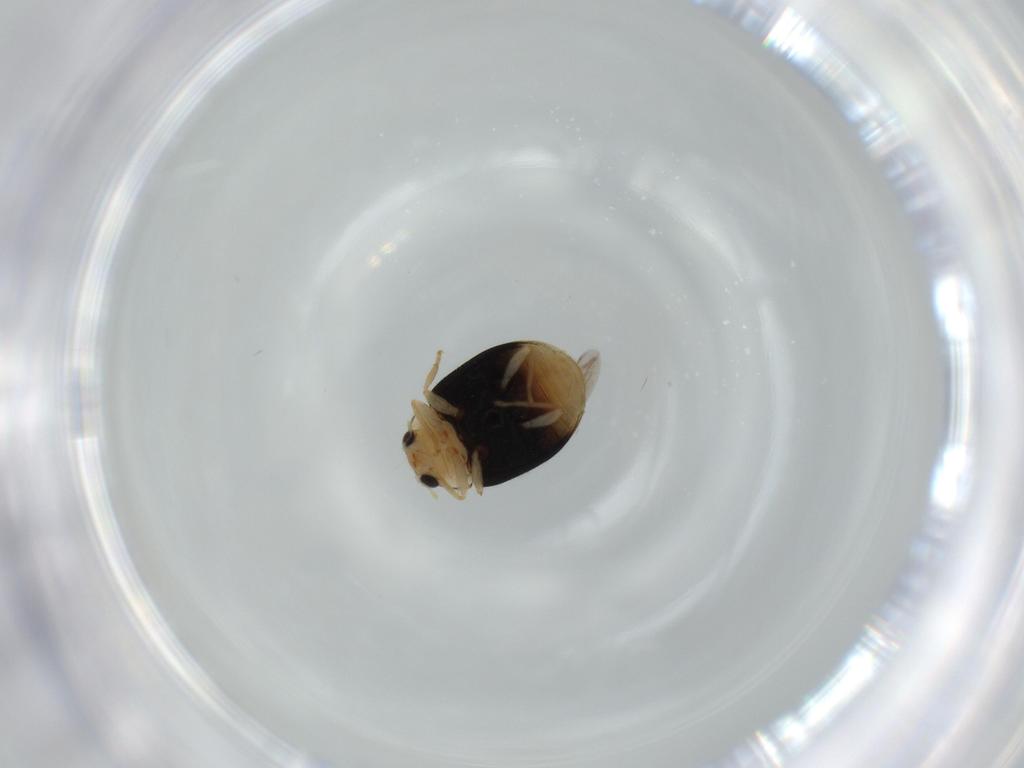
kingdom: Animalia
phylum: Arthropoda
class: Insecta
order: Coleoptera
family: Coccinellidae
